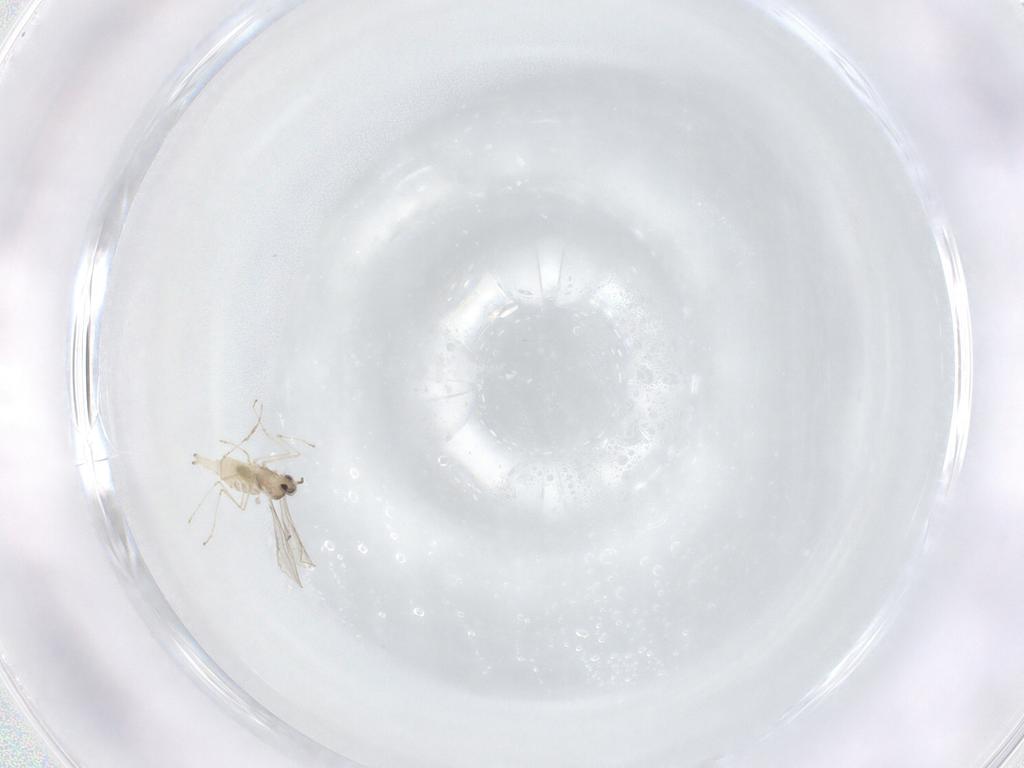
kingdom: Animalia
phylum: Arthropoda
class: Insecta
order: Diptera
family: Cecidomyiidae
